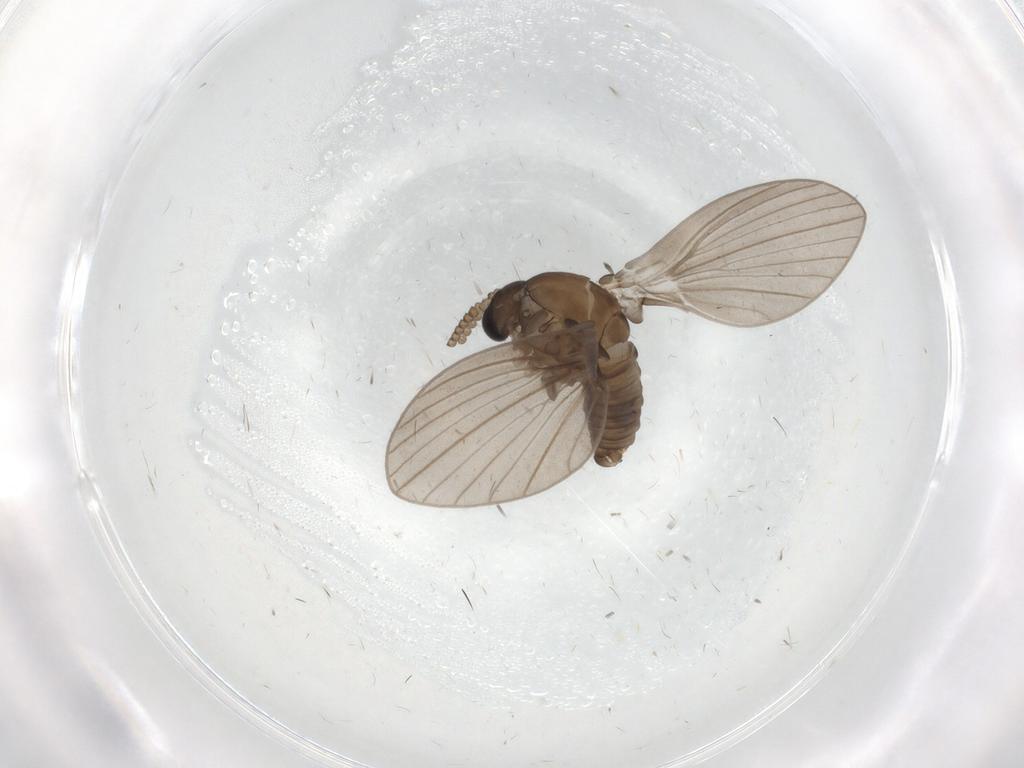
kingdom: Animalia
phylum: Arthropoda
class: Insecta
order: Diptera
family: Psychodidae
